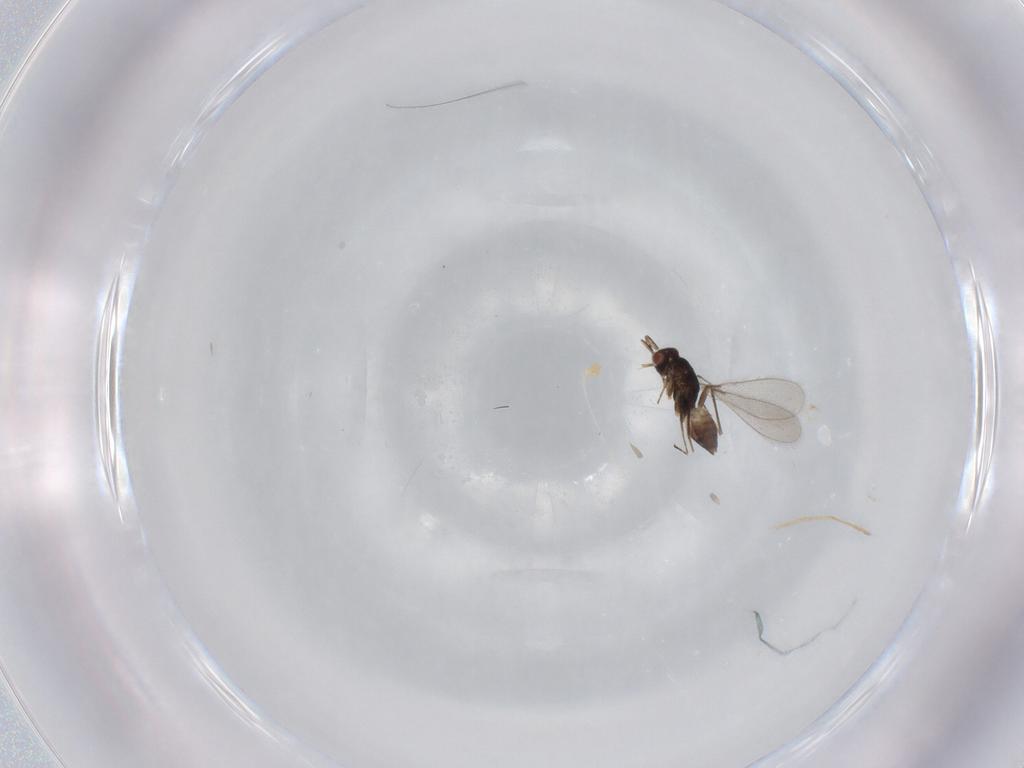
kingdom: Animalia
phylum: Arthropoda
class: Insecta
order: Hymenoptera
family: Mymaridae
